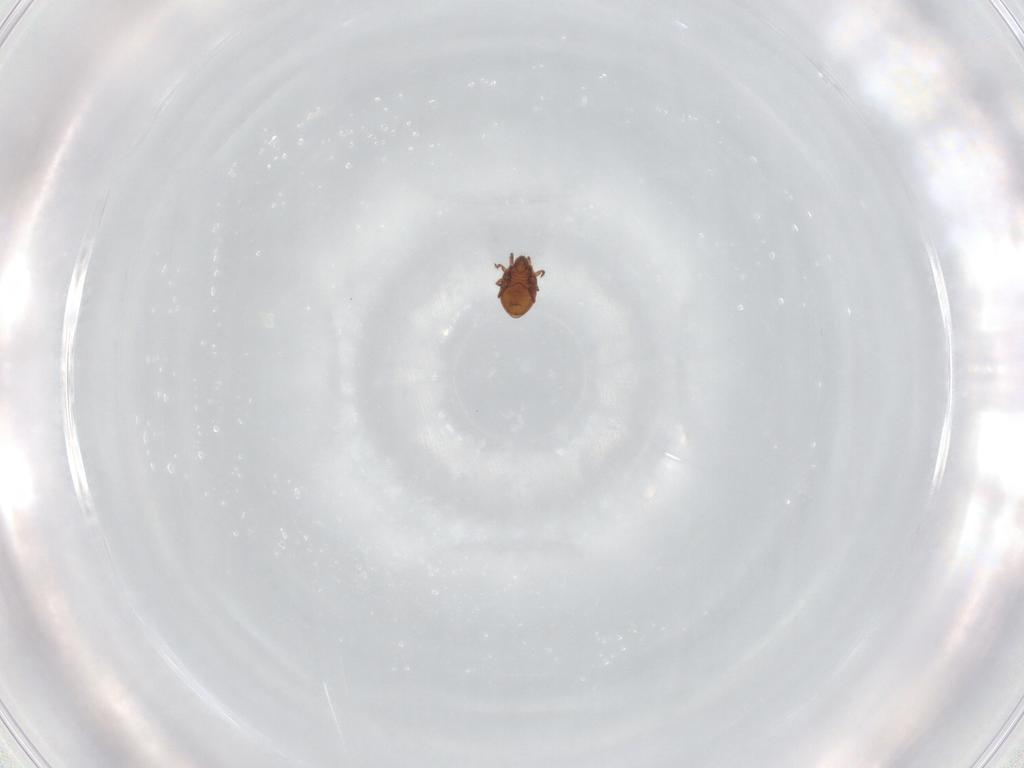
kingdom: Animalia
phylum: Arthropoda
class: Arachnida
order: Sarcoptiformes
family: Liacaridae
